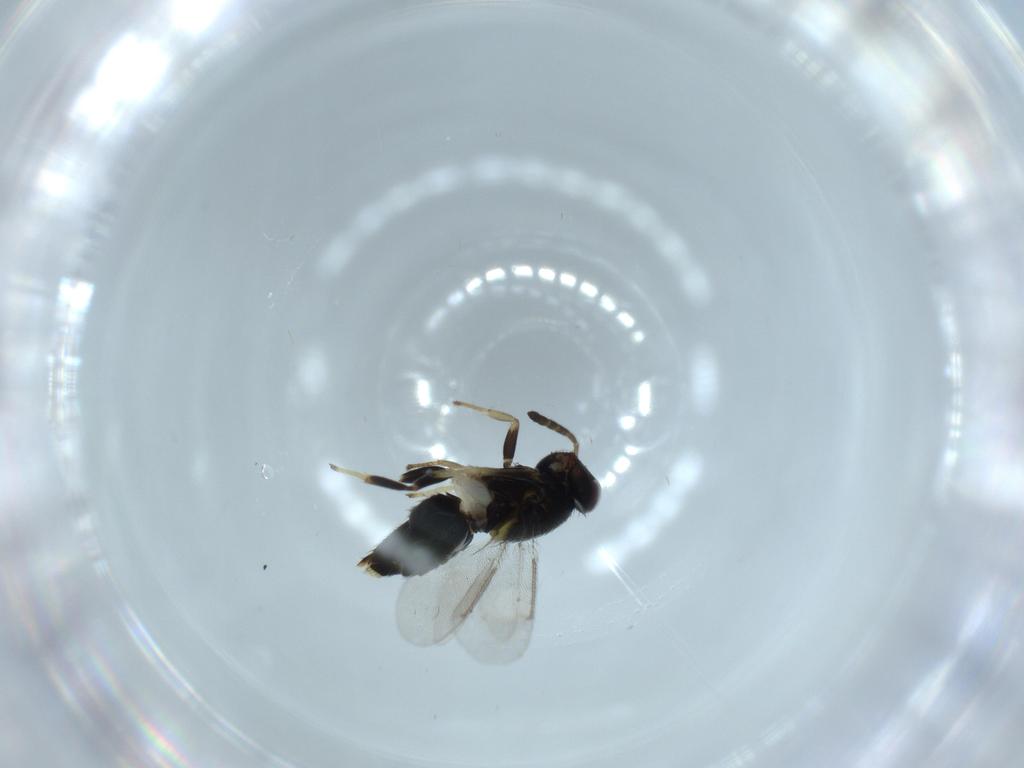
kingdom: Animalia
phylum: Arthropoda
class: Insecta
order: Hymenoptera
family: Aphelinidae
